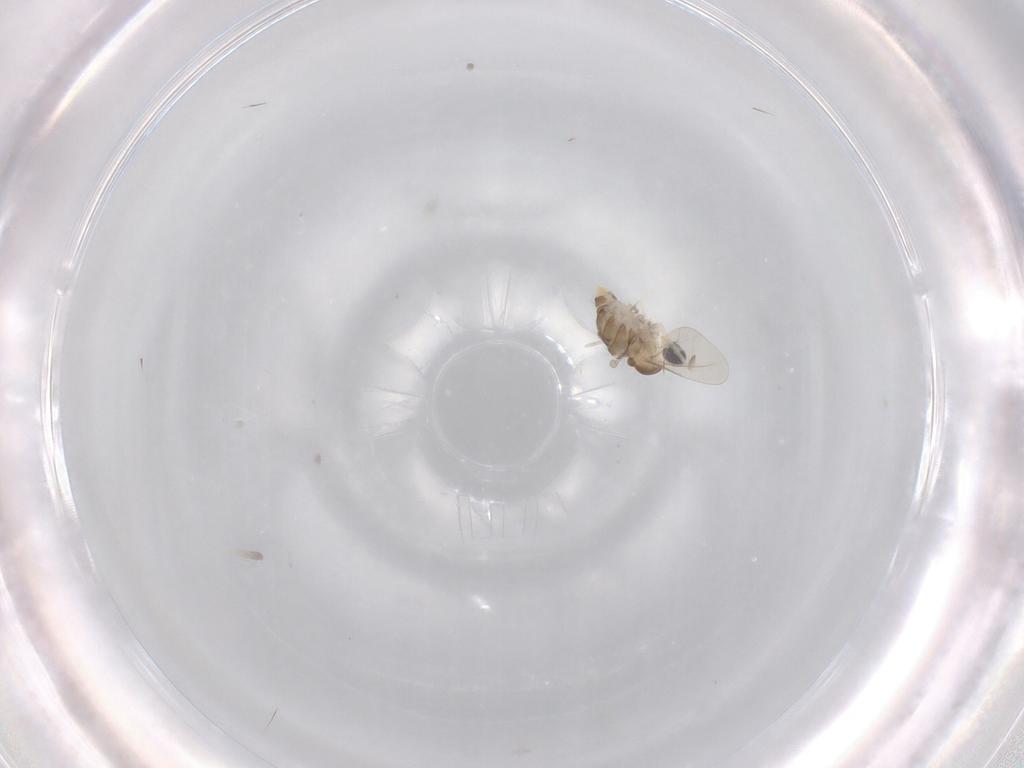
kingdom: Animalia
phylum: Arthropoda
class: Insecta
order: Diptera
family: Cecidomyiidae
